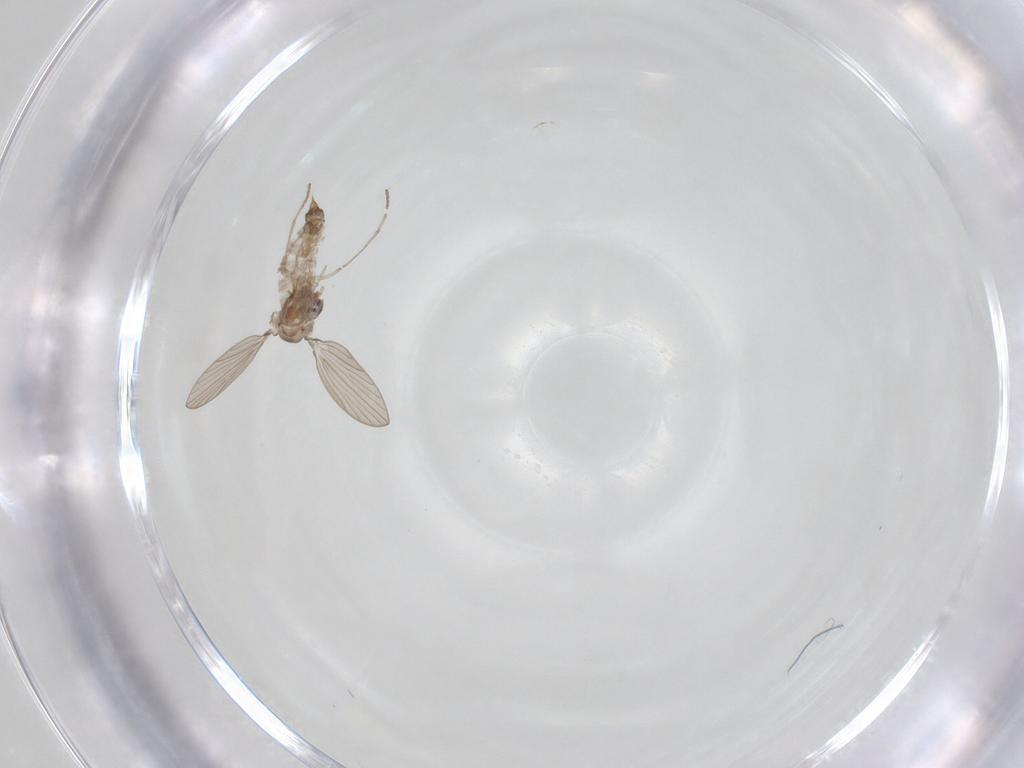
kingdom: Animalia
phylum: Arthropoda
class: Insecta
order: Diptera
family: Psychodidae
